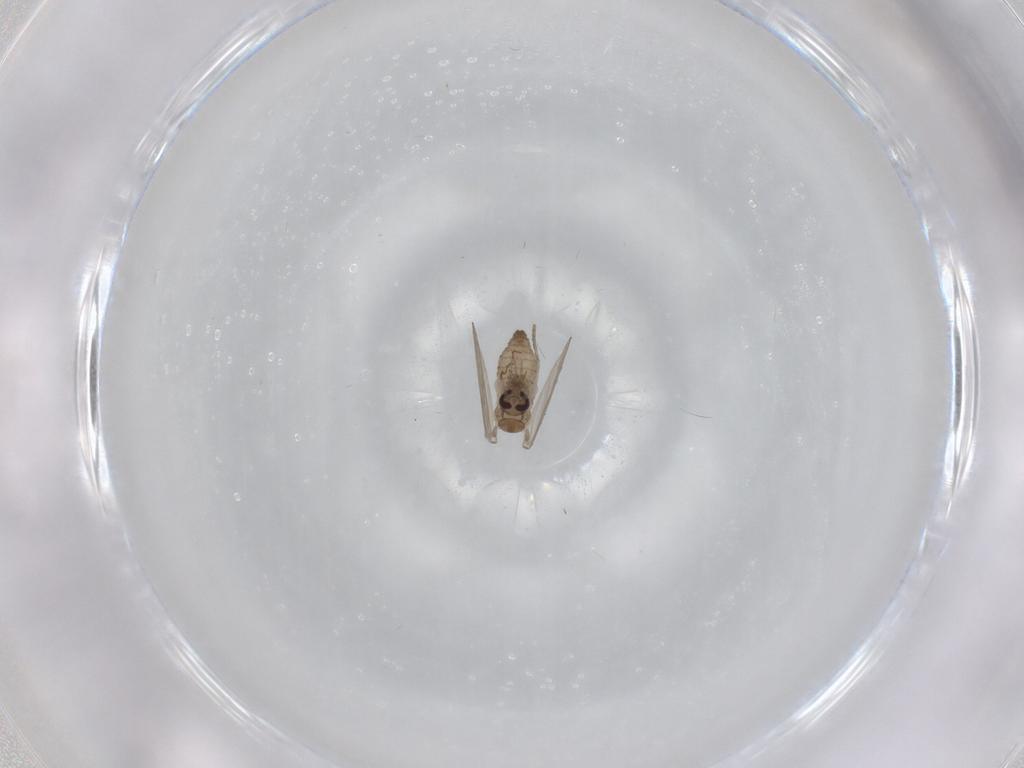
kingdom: Animalia
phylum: Arthropoda
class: Insecta
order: Diptera
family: Psychodidae
